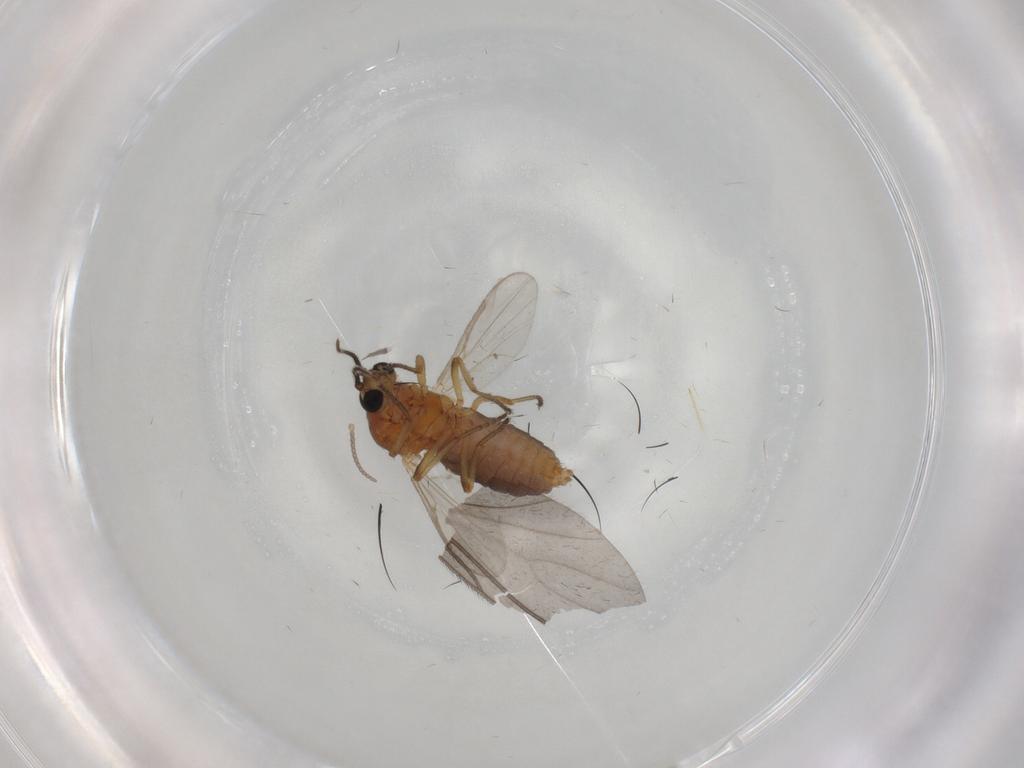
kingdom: Animalia
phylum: Arthropoda
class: Insecta
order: Diptera
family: Ceratopogonidae
